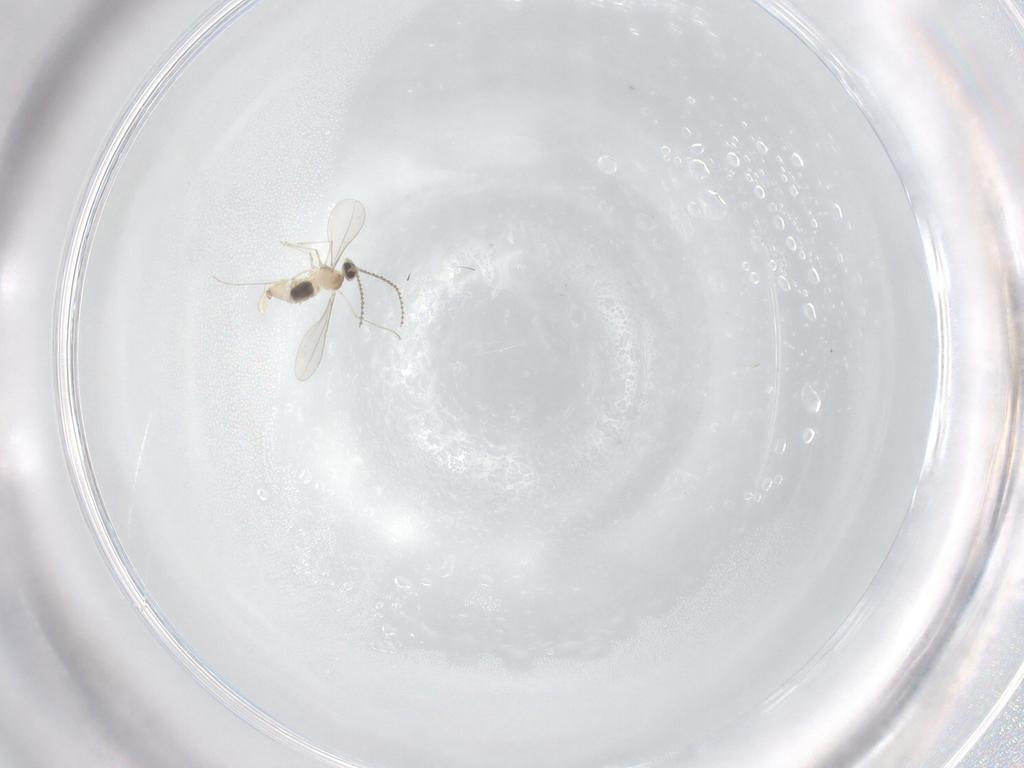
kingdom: Animalia
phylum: Arthropoda
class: Insecta
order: Diptera
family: Cecidomyiidae
